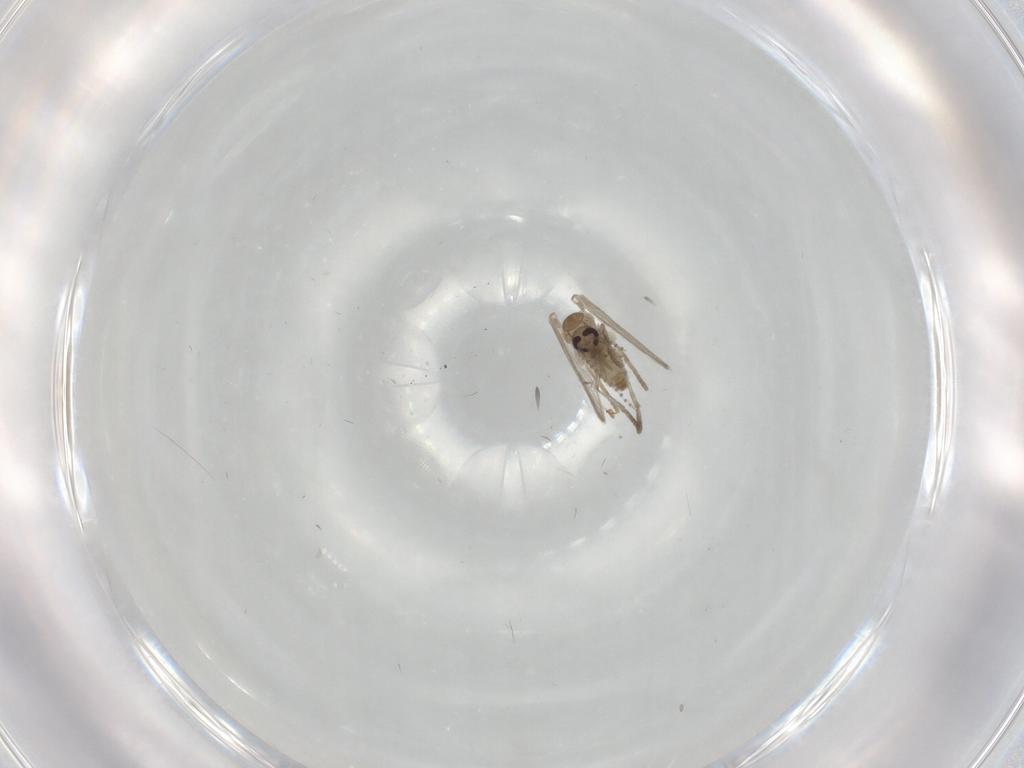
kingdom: Animalia
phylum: Arthropoda
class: Insecta
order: Diptera
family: Psychodidae
